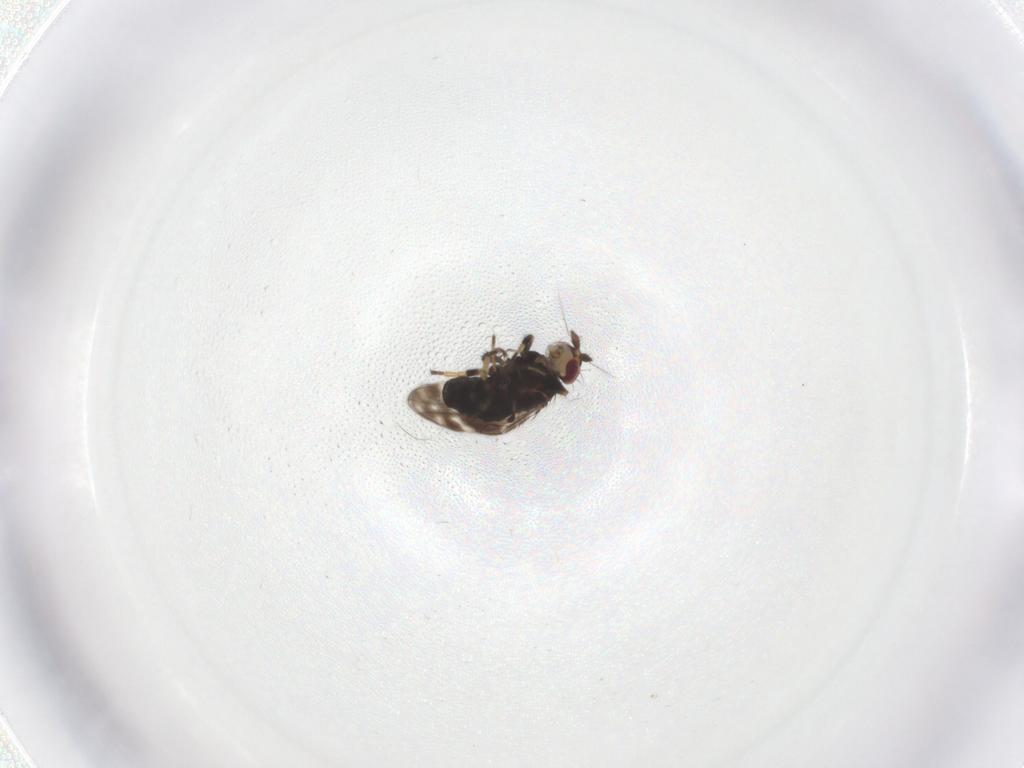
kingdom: Animalia
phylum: Arthropoda
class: Insecta
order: Diptera
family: Sphaeroceridae
